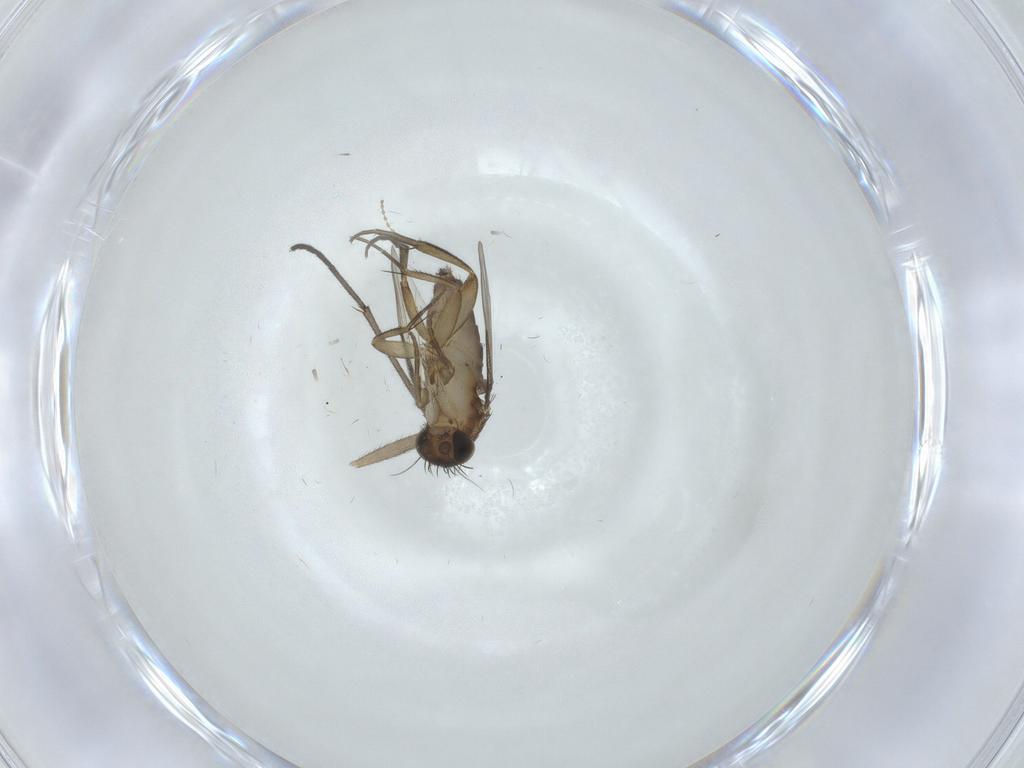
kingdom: Animalia
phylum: Arthropoda
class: Insecta
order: Diptera
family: Phoridae
